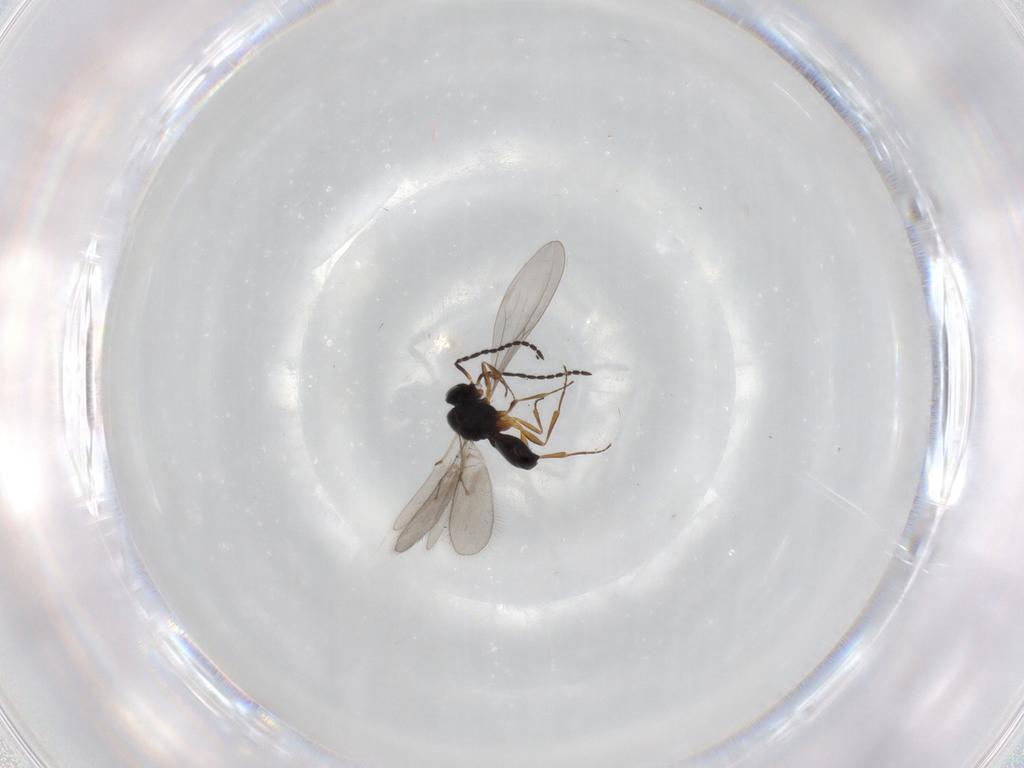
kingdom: Animalia
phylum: Arthropoda
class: Insecta
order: Hymenoptera
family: Scelionidae
